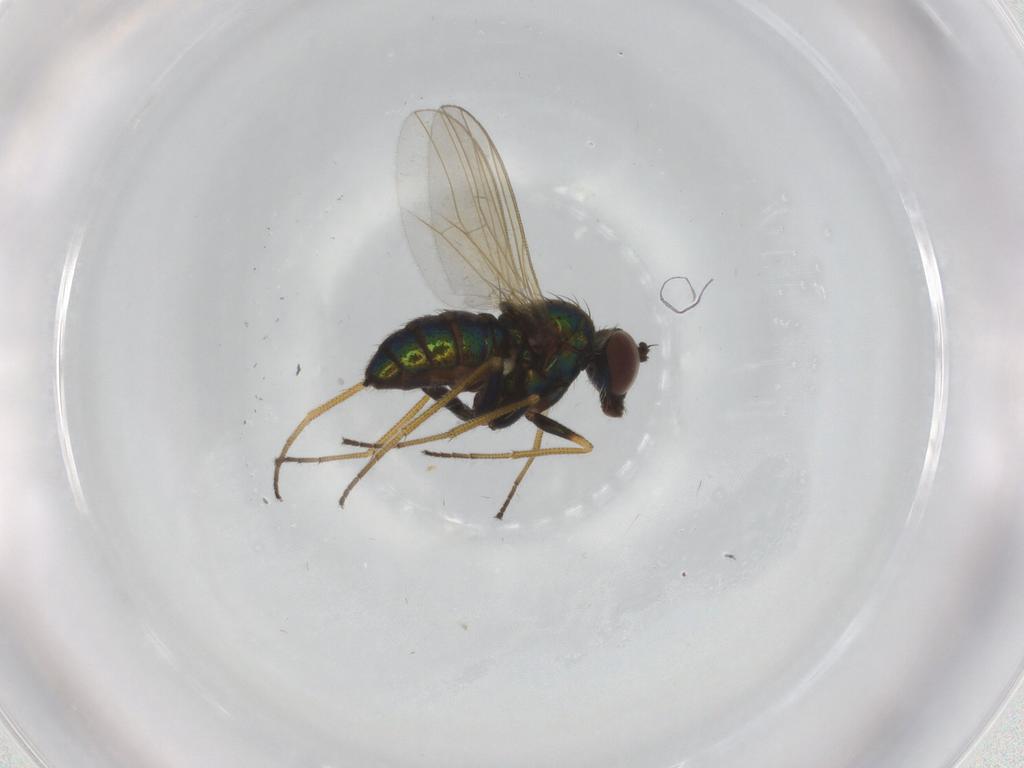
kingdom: Animalia
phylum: Arthropoda
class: Insecta
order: Diptera
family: Dolichopodidae
